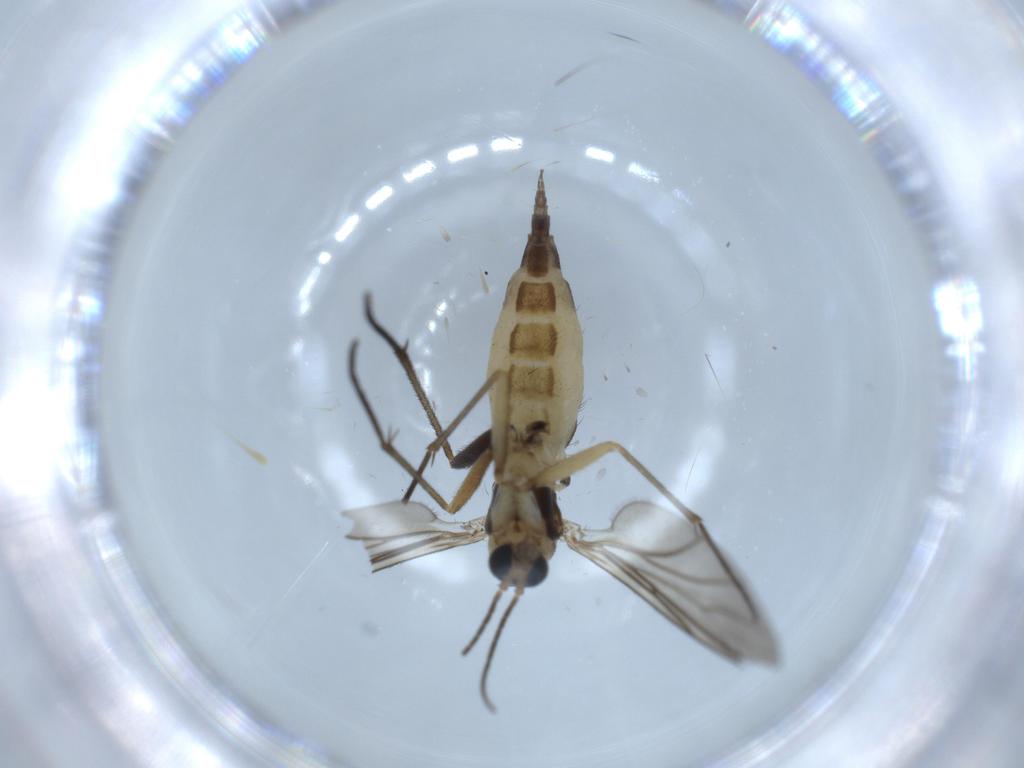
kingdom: Animalia
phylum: Arthropoda
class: Insecta
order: Diptera
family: Sciaridae
